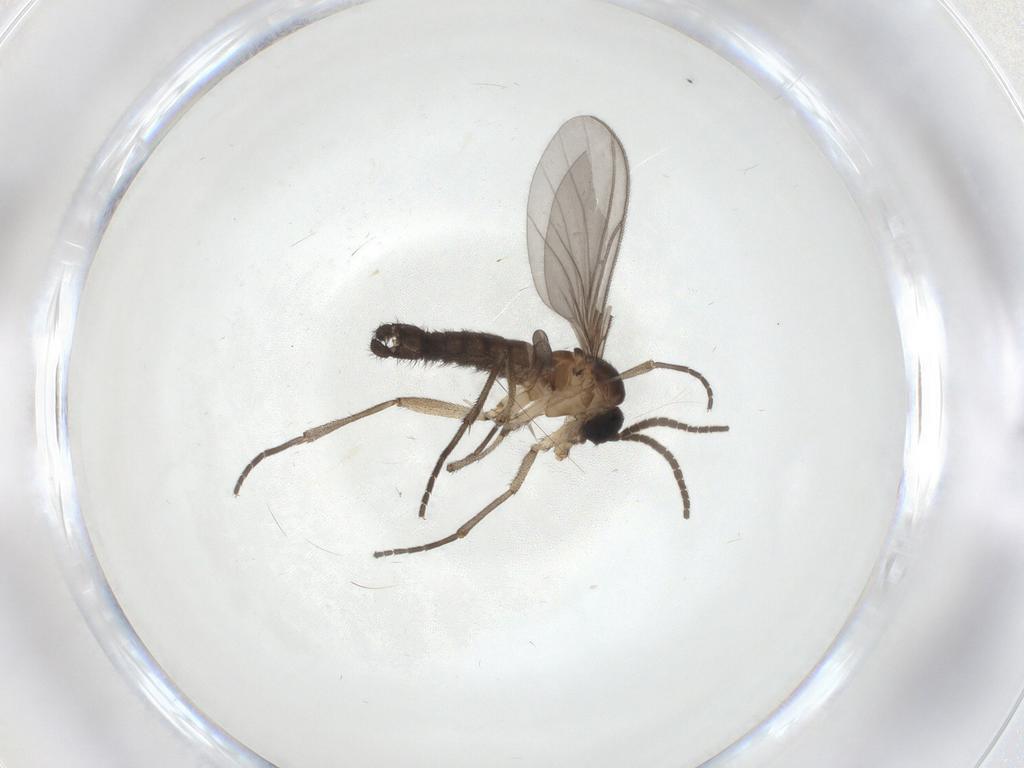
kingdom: Animalia
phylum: Arthropoda
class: Insecta
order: Diptera
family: Sciaridae
